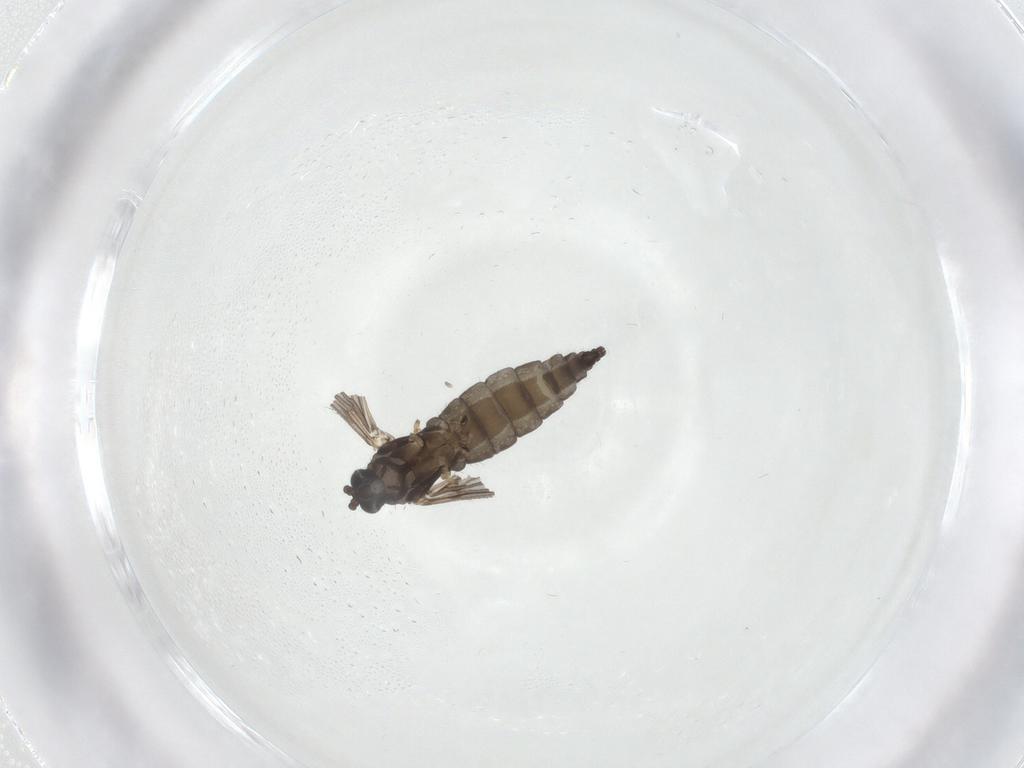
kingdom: Animalia
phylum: Arthropoda
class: Insecta
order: Diptera
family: Sciaridae
